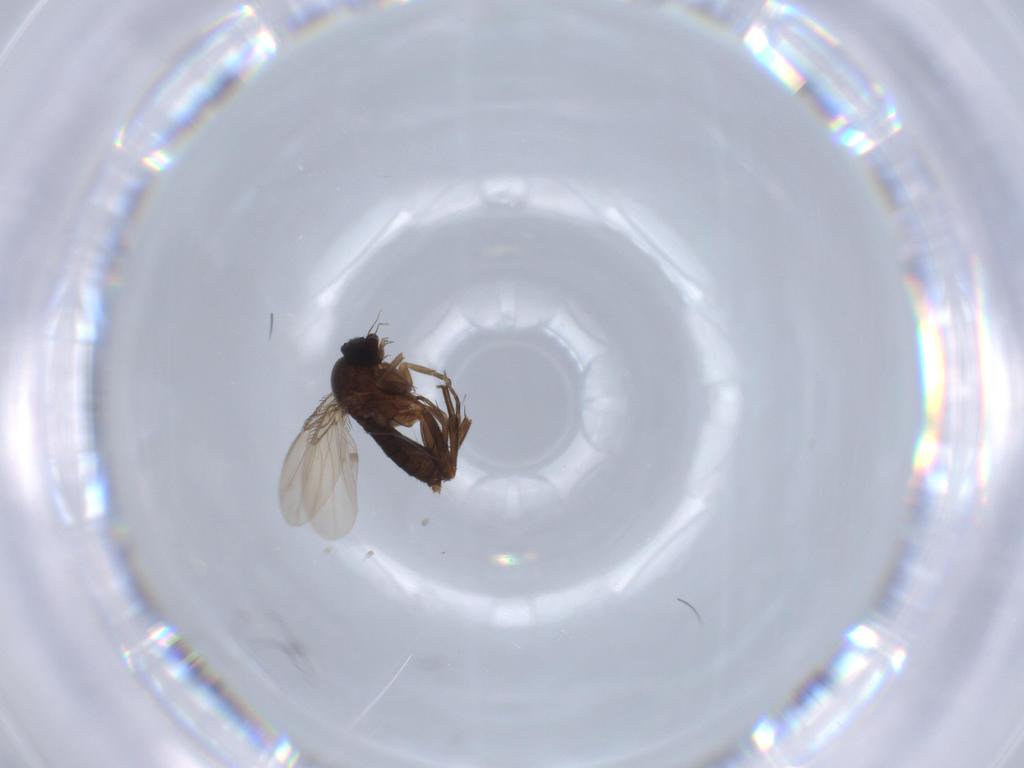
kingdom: Animalia
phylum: Arthropoda
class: Insecta
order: Diptera
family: Phoridae
